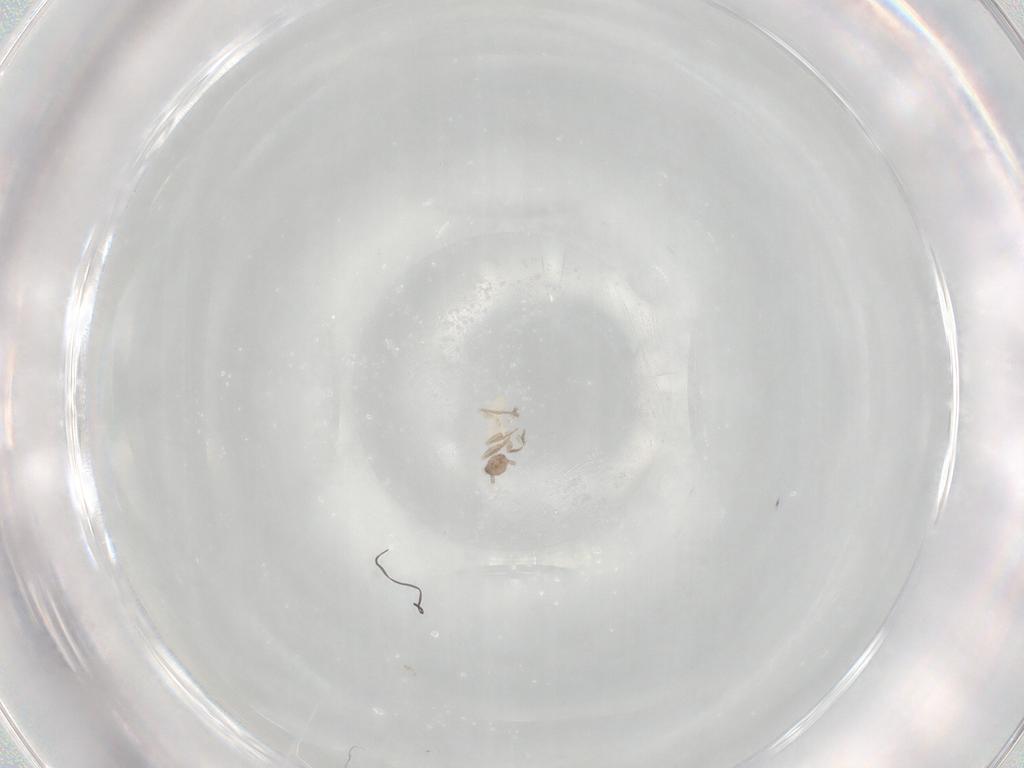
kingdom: Animalia
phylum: Arthropoda
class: Insecta
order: Psocodea
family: Lepidopsocidae
